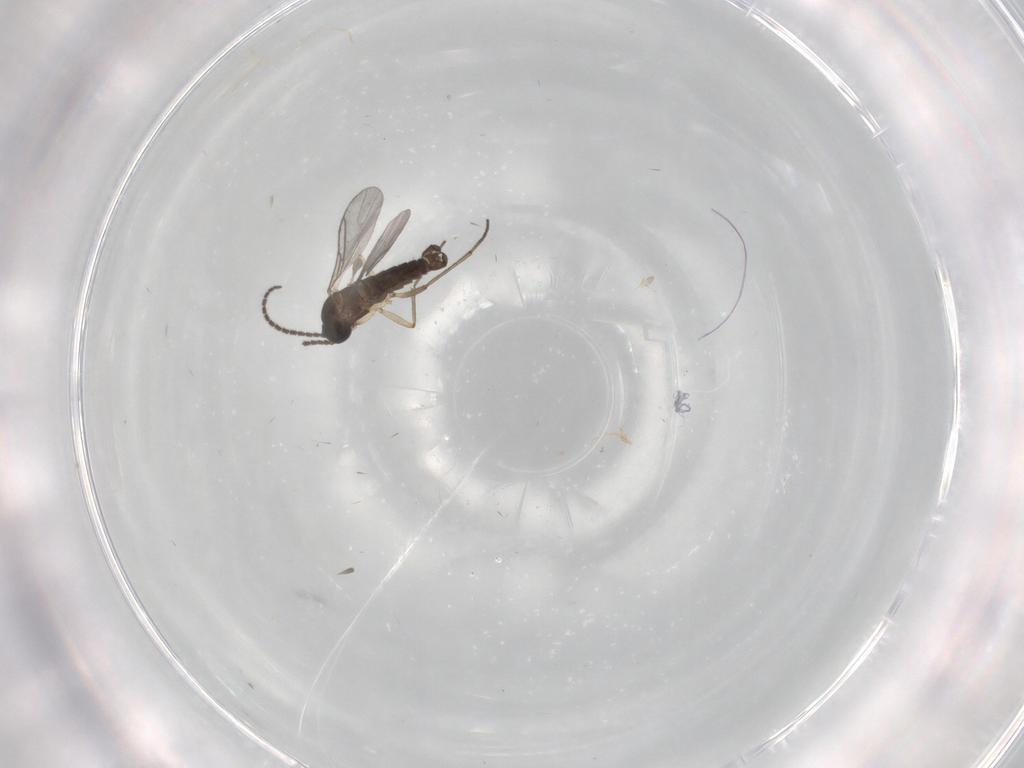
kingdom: Animalia
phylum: Arthropoda
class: Insecta
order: Diptera
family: Sciaridae
